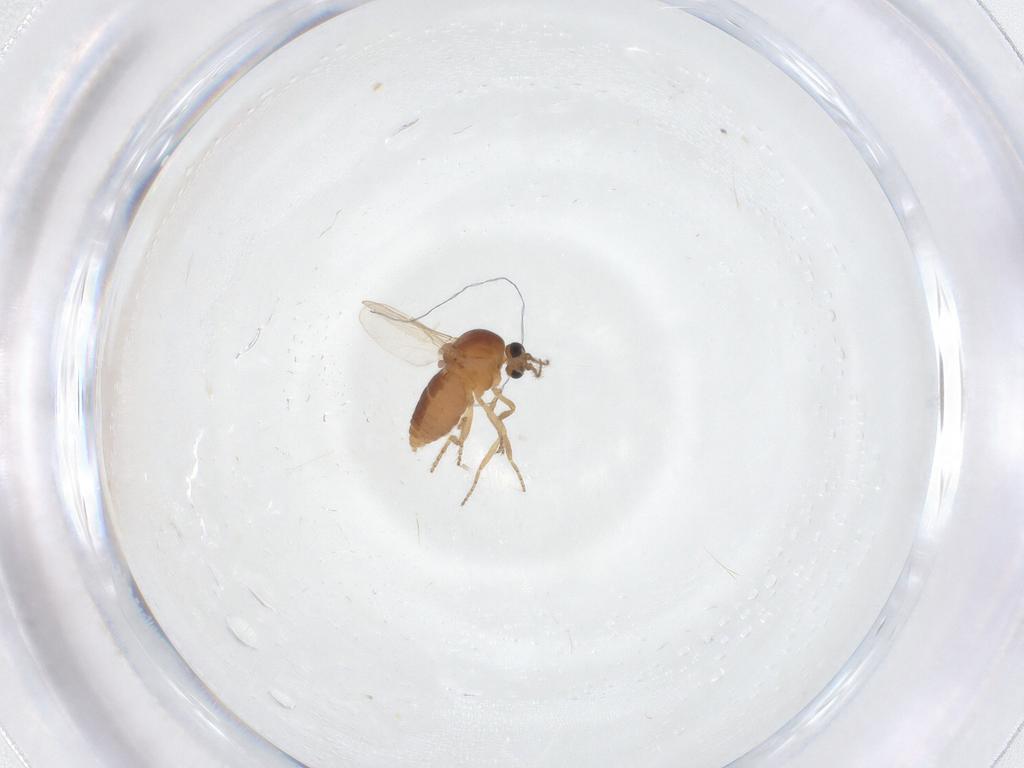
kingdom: Animalia
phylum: Arthropoda
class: Insecta
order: Diptera
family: Ceratopogonidae
